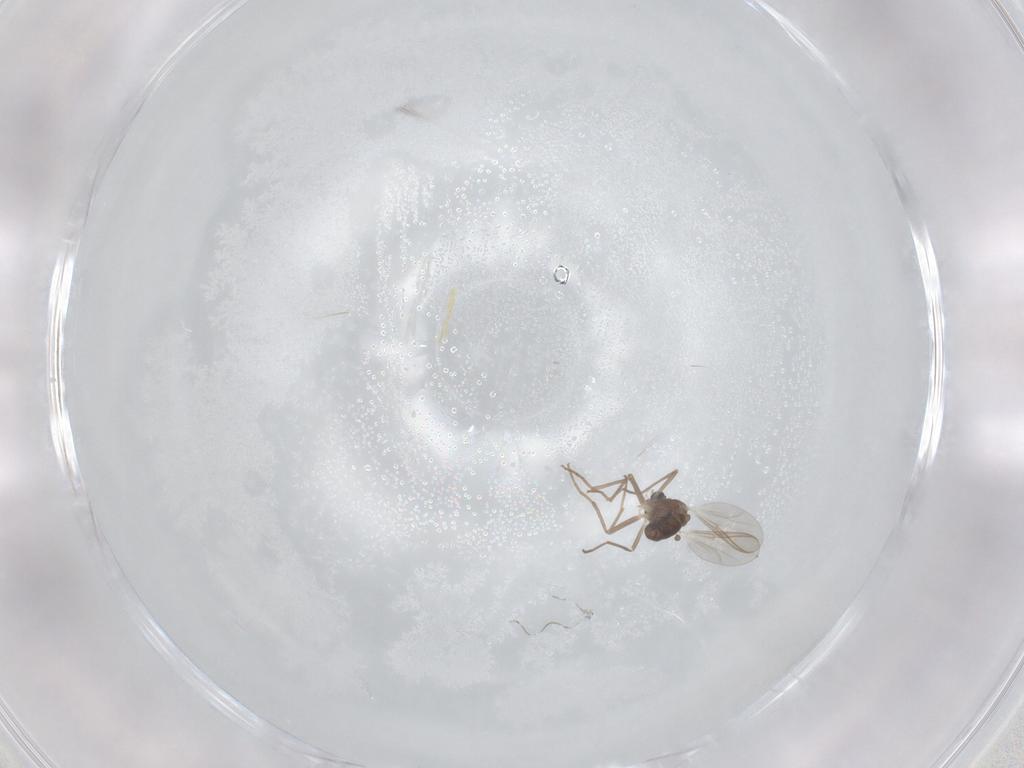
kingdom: Animalia
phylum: Arthropoda
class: Insecta
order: Diptera
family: Chironomidae
